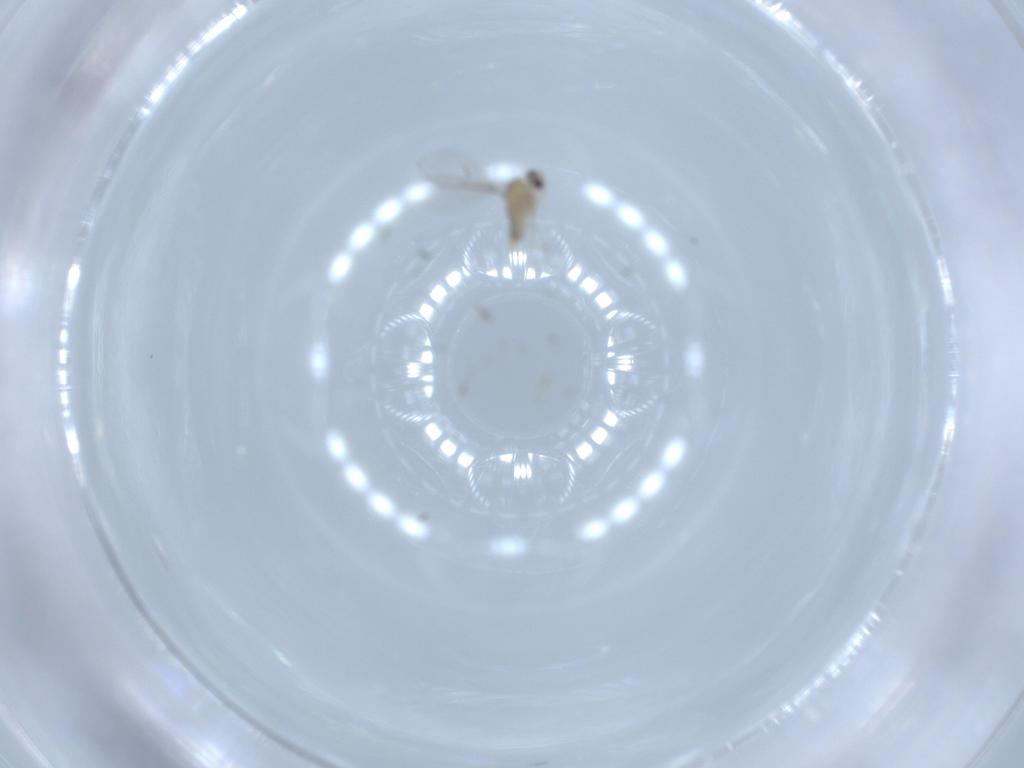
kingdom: Animalia
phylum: Arthropoda
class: Insecta
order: Diptera
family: Cecidomyiidae
